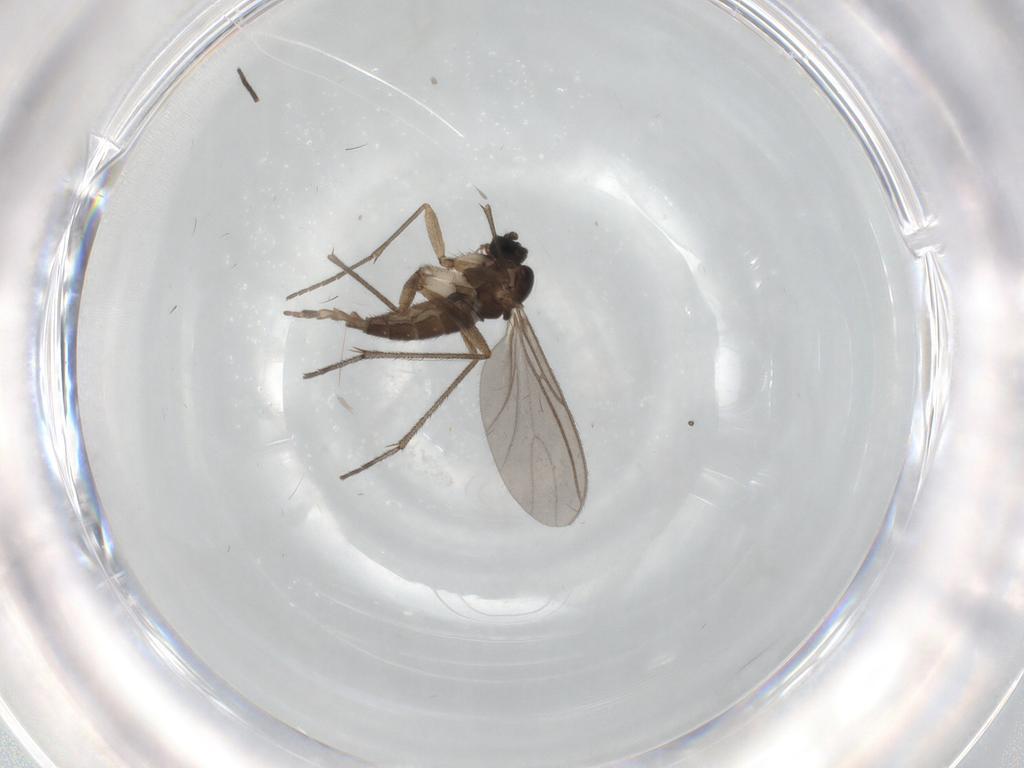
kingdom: Animalia
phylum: Arthropoda
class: Insecta
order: Diptera
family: Sciaridae
